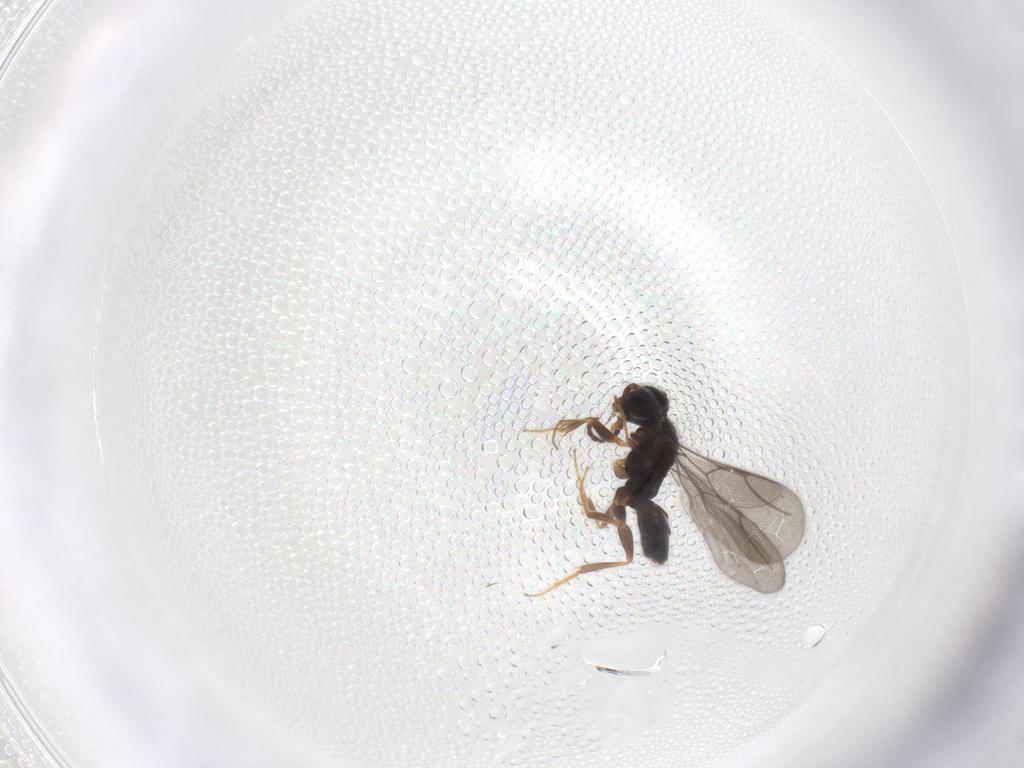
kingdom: Animalia
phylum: Arthropoda
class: Insecta
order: Hymenoptera
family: Bethylidae
